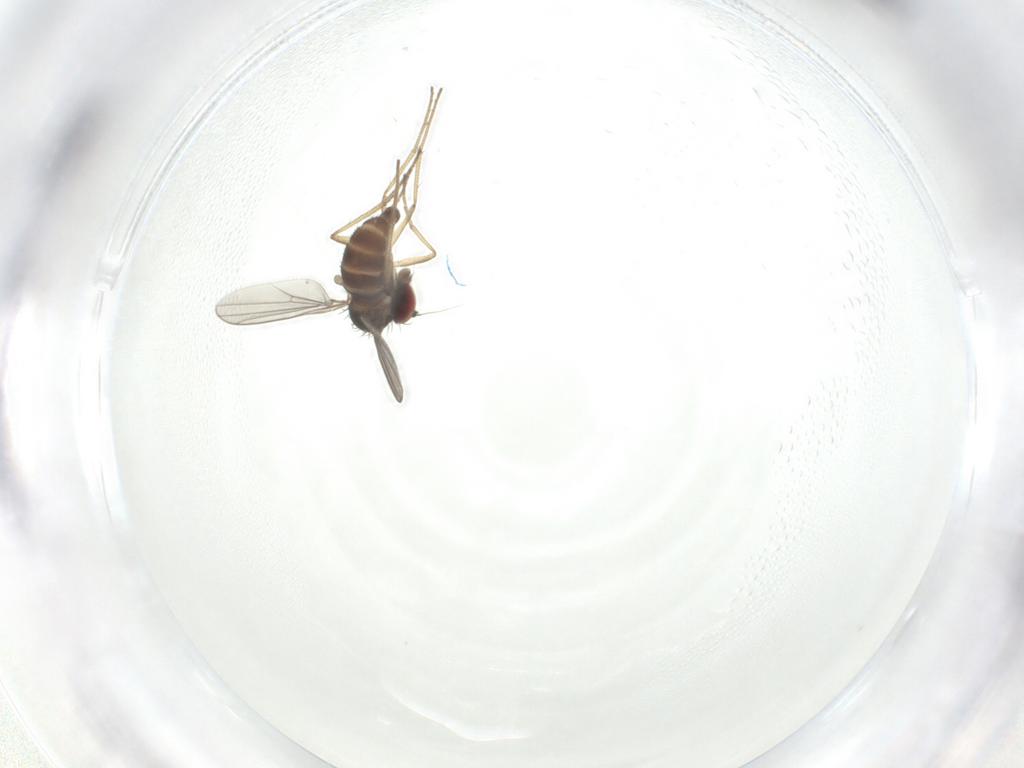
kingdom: Animalia
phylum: Arthropoda
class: Insecta
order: Diptera
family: Dolichopodidae
